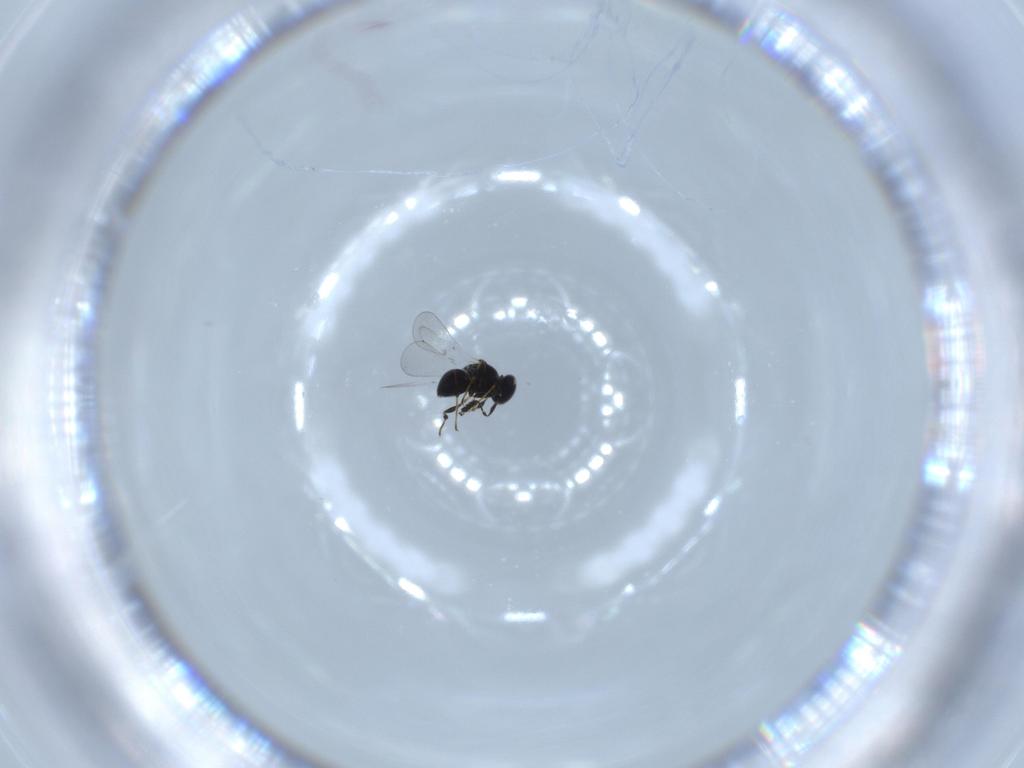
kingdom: Animalia
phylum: Arthropoda
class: Insecta
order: Hymenoptera
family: Platygastridae
